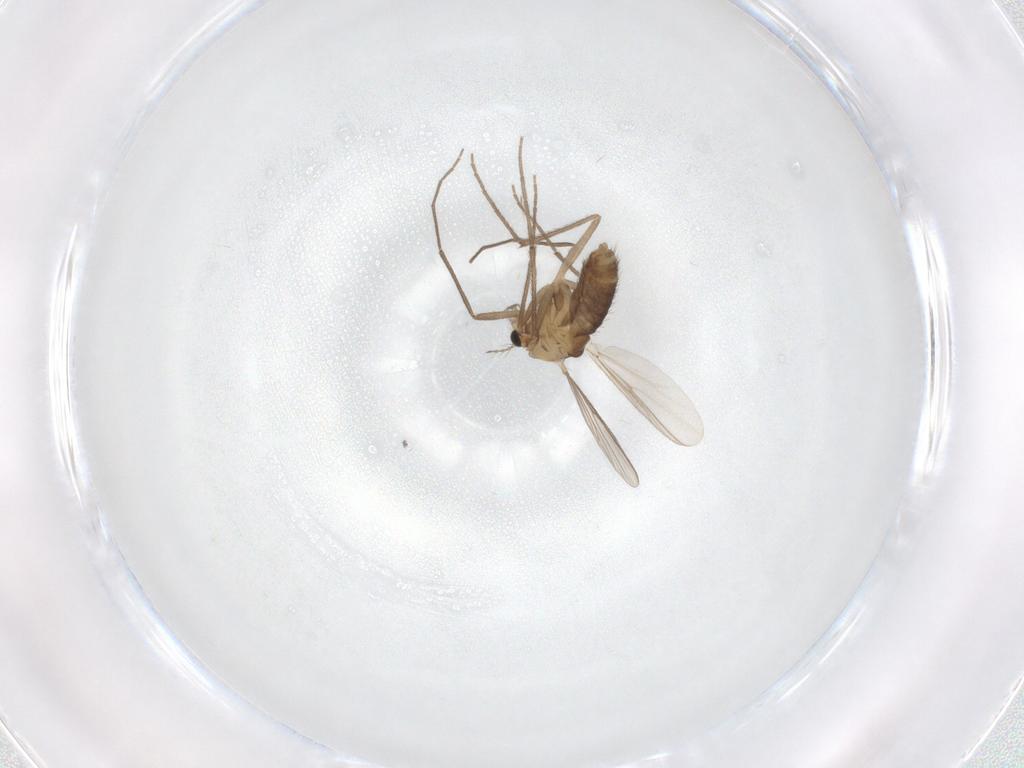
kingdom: Animalia
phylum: Arthropoda
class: Insecta
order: Diptera
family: Chironomidae
